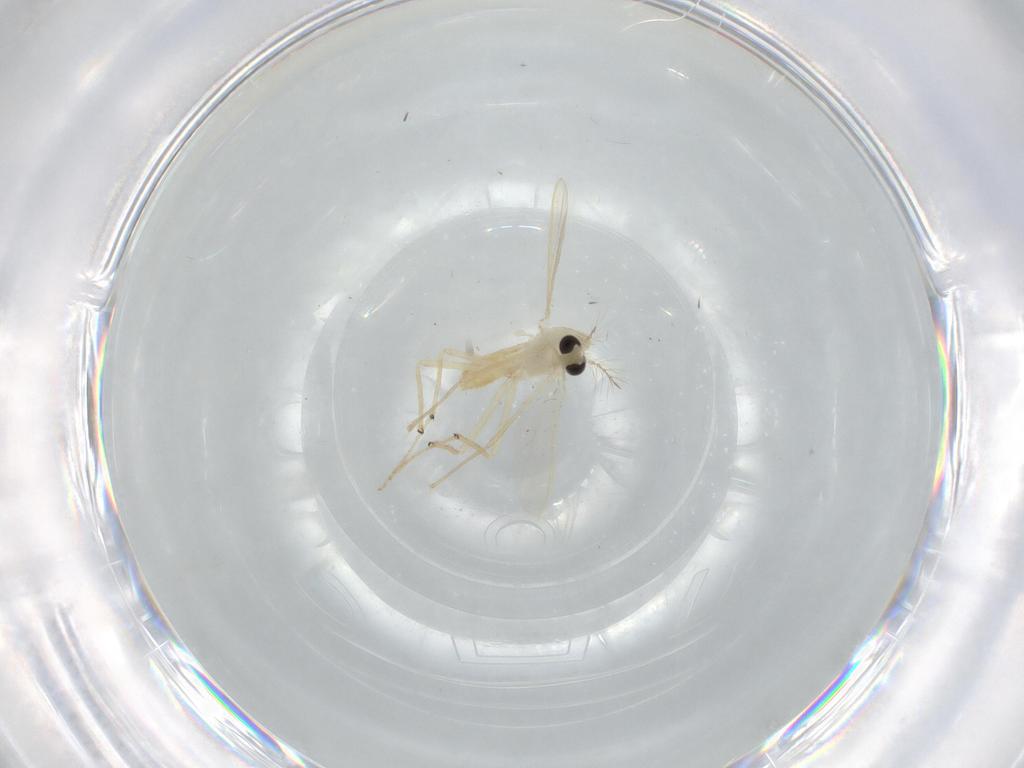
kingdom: Animalia
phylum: Arthropoda
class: Insecta
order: Diptera
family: Chironomidae
